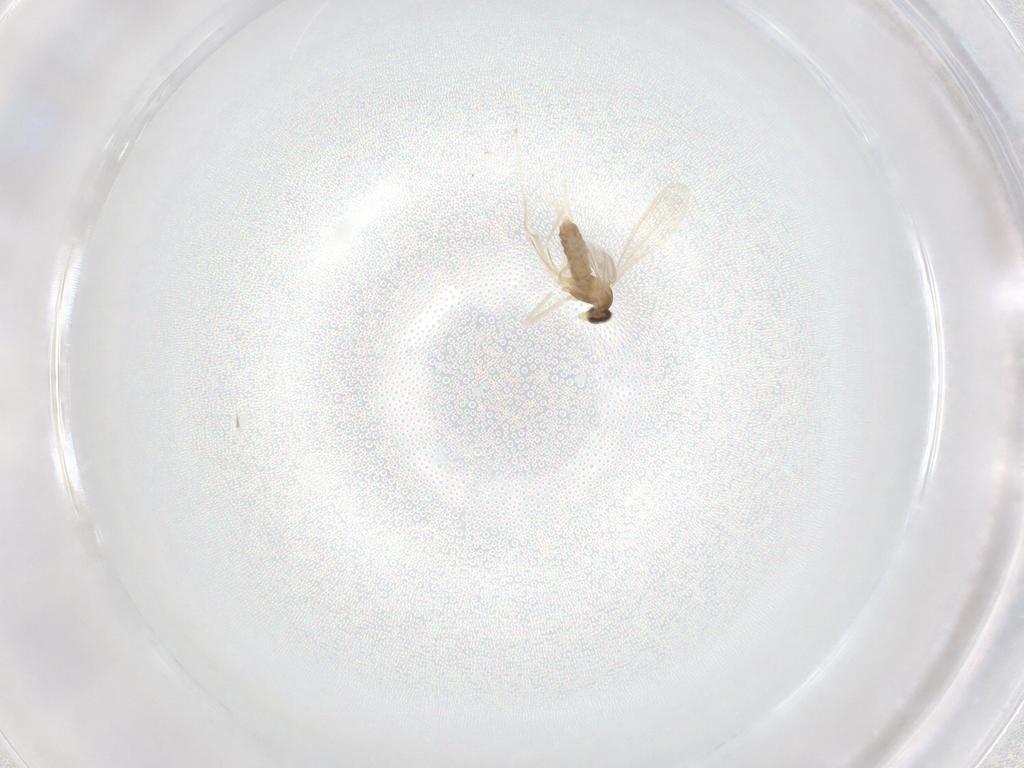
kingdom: Animalia
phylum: Arthropoda
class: Insecta
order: Diptera
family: Cecidomyiidae
